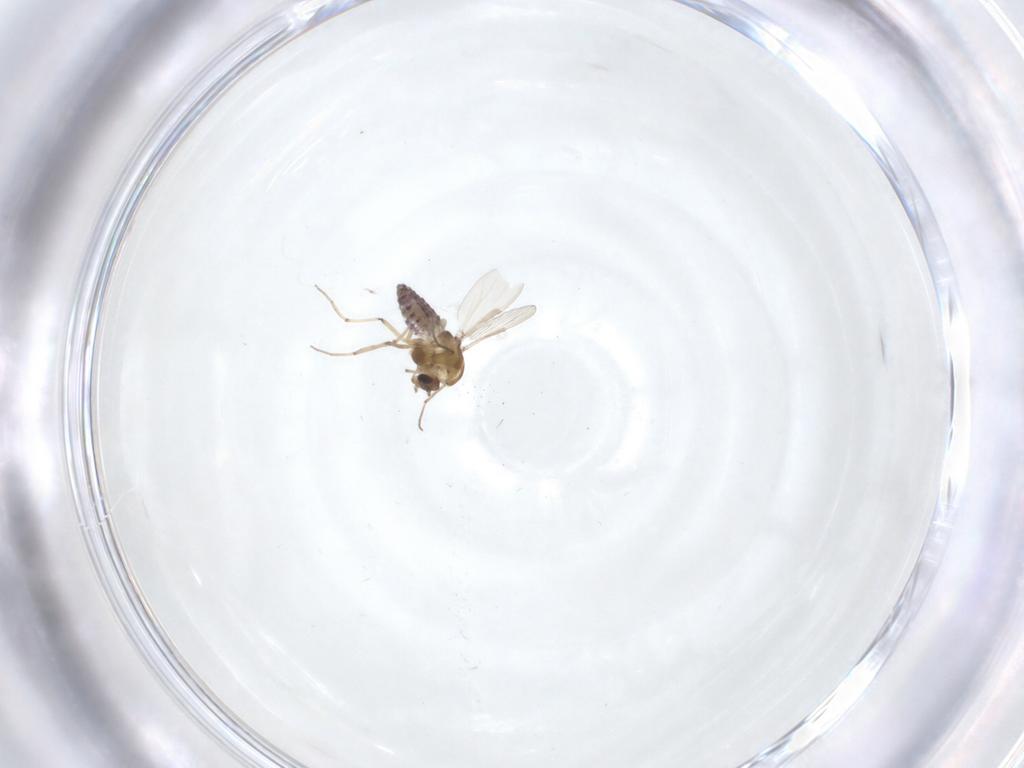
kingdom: Animalia
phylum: Arthropoda
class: Insecta
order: Diptera
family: Chironomidae
